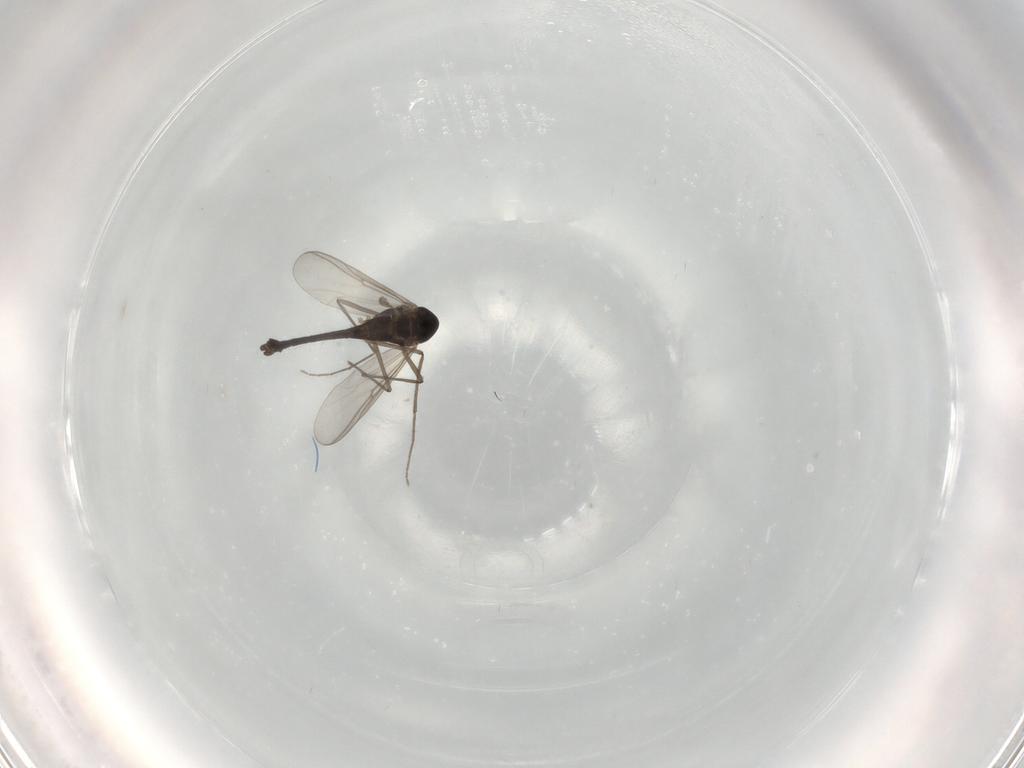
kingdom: Animalia
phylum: Arthropoda
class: Insecta
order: Diptera
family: Chironomidae
